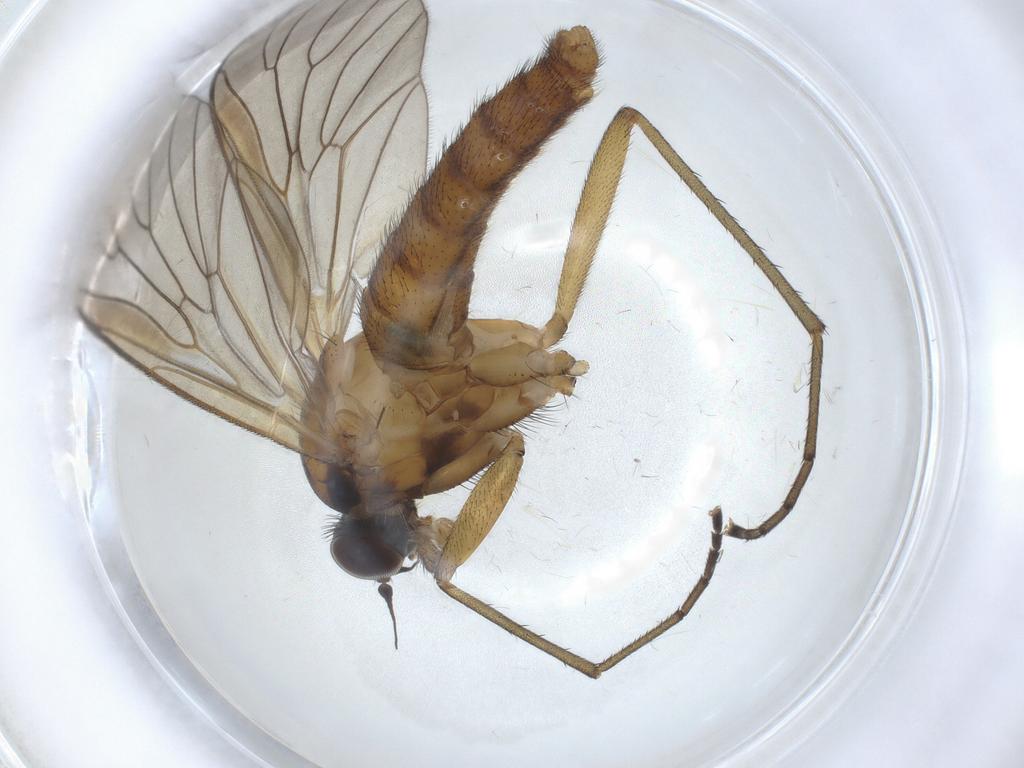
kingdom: Animalia
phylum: Arthropoda
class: Insecta
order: Diptera
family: Rhagionidae
